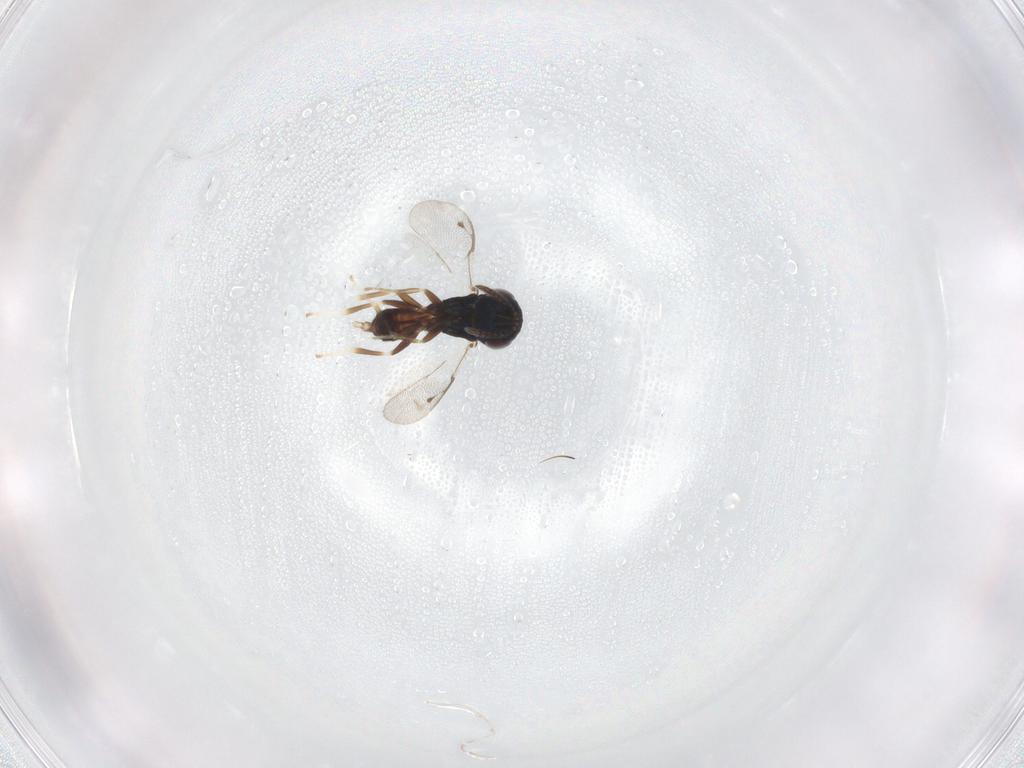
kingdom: Animalia
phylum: Arthropoda
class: Insecta
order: Hymenoptera
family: Pteromalidae
